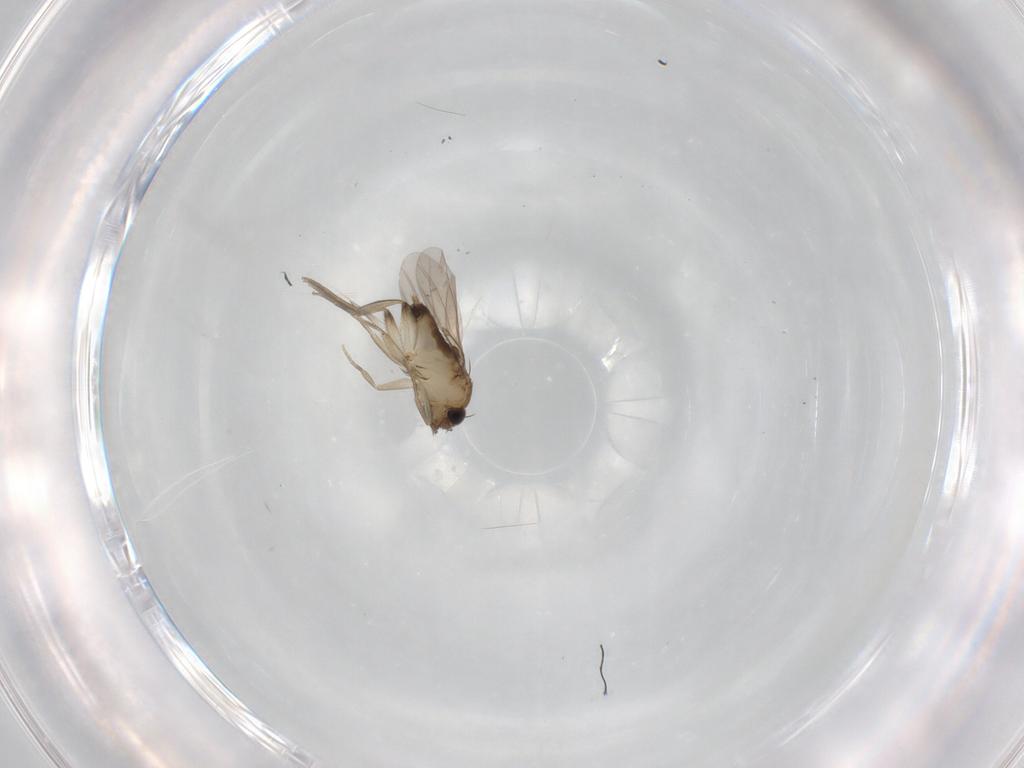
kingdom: Animalia
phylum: Arthropoda
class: Insecta
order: Diptera
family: Phoridae
